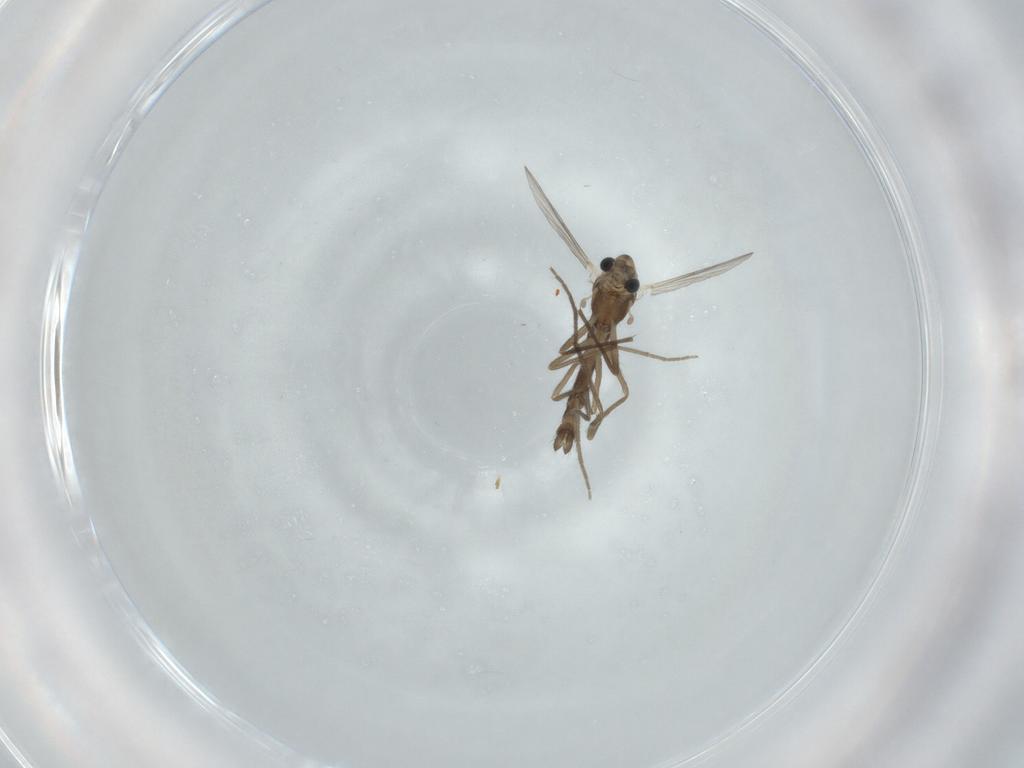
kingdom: Animalia
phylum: Arthropoda
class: Insecta
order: Diptera
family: Chironomidae
